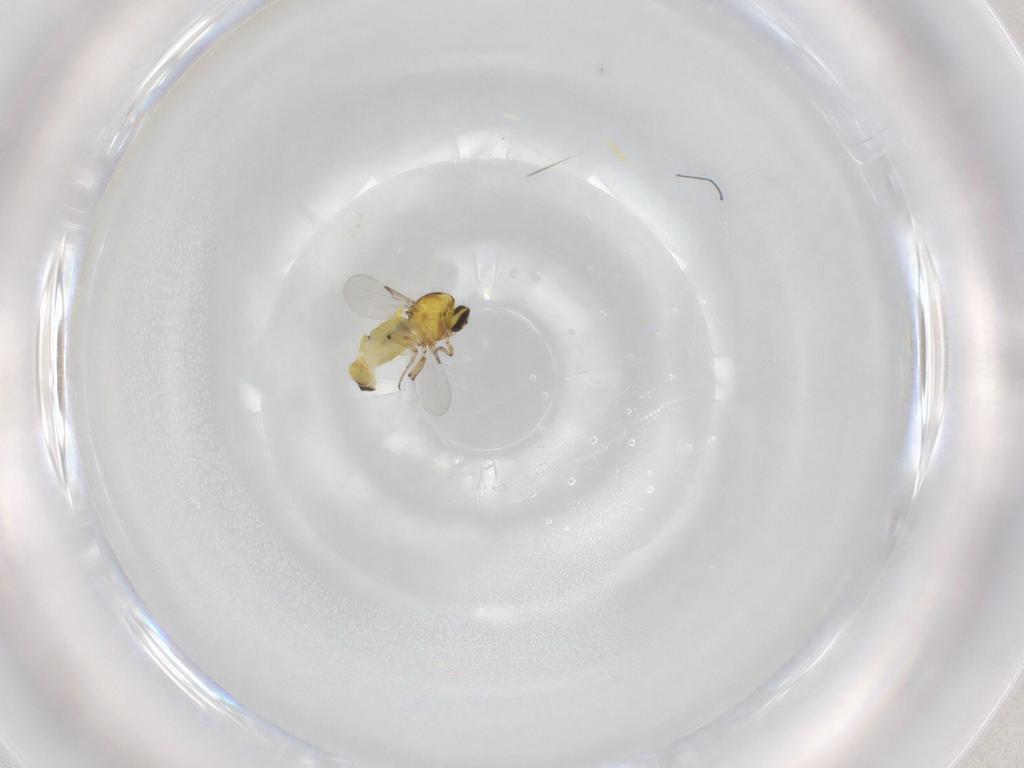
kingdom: Animalia
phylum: Arthropoda
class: Insecta
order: Diptera
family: Ceratopogonidae
